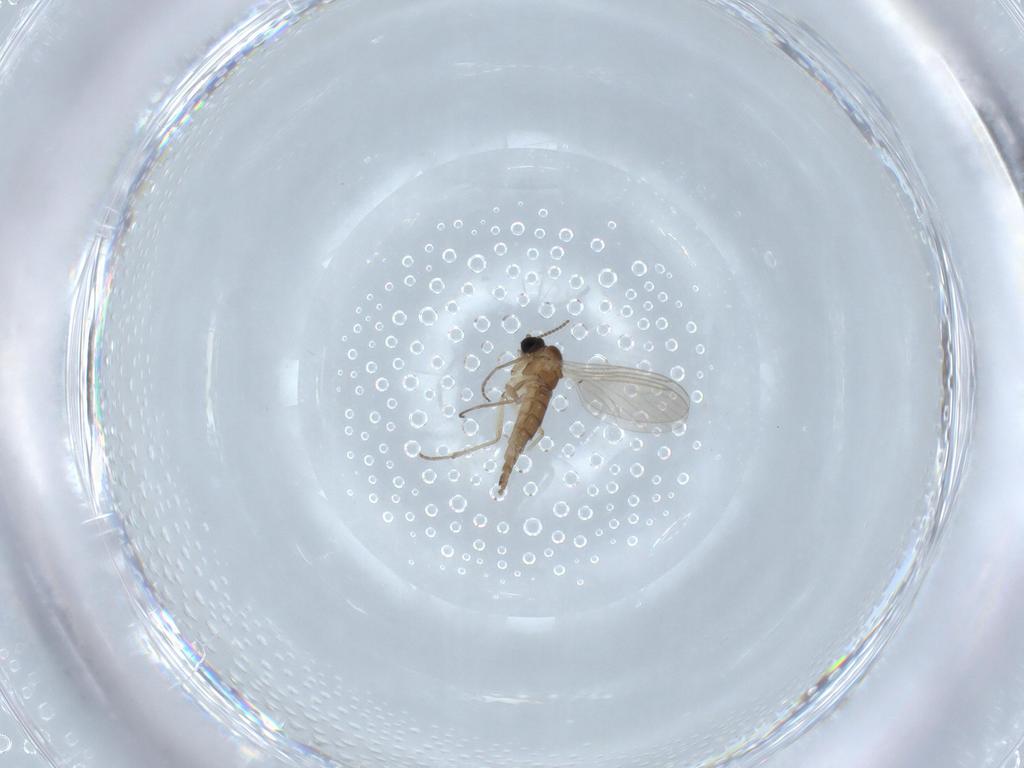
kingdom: Animalia
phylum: Arthropoda
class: Insecta
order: Diptera
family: Sciaridae
